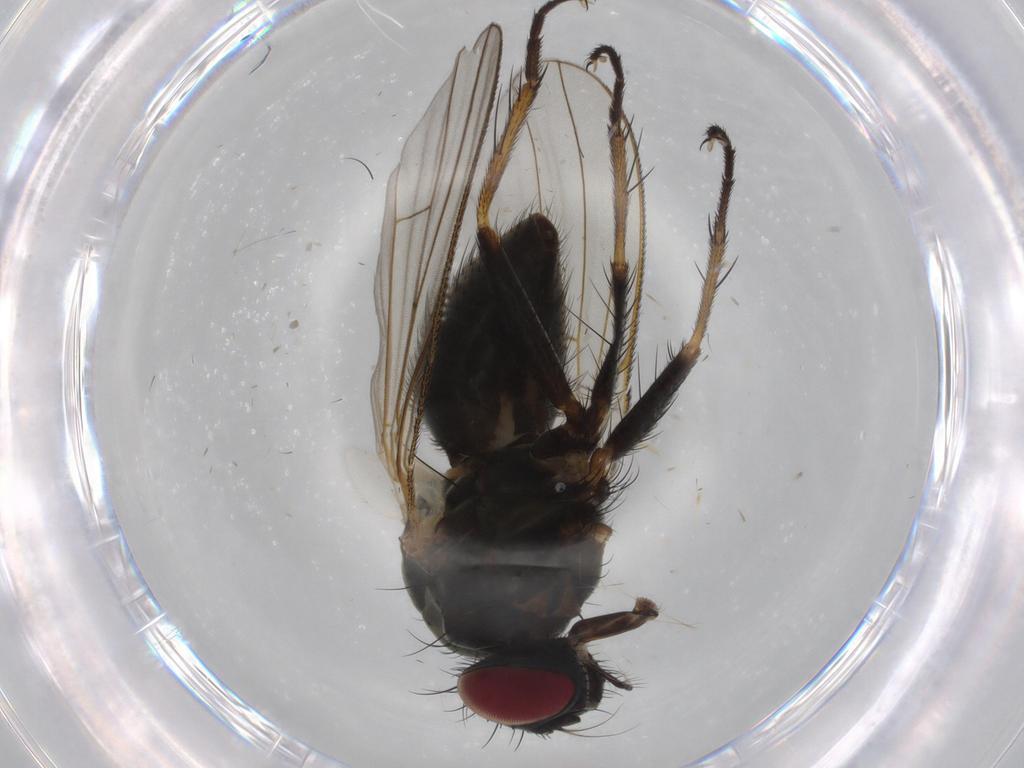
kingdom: Animalia
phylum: Arthropoda
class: Insecta
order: Diptera
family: Muscidae
